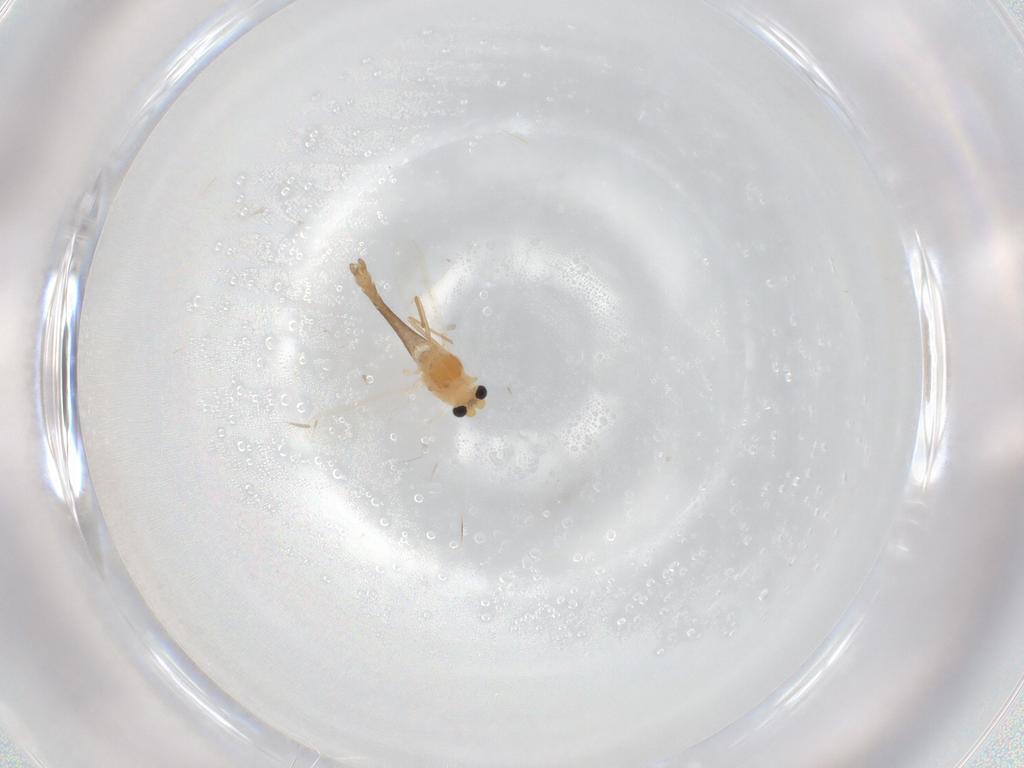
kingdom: Animalia
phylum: Arthropoda
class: Insecta
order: Diptera
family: Chironomidae
